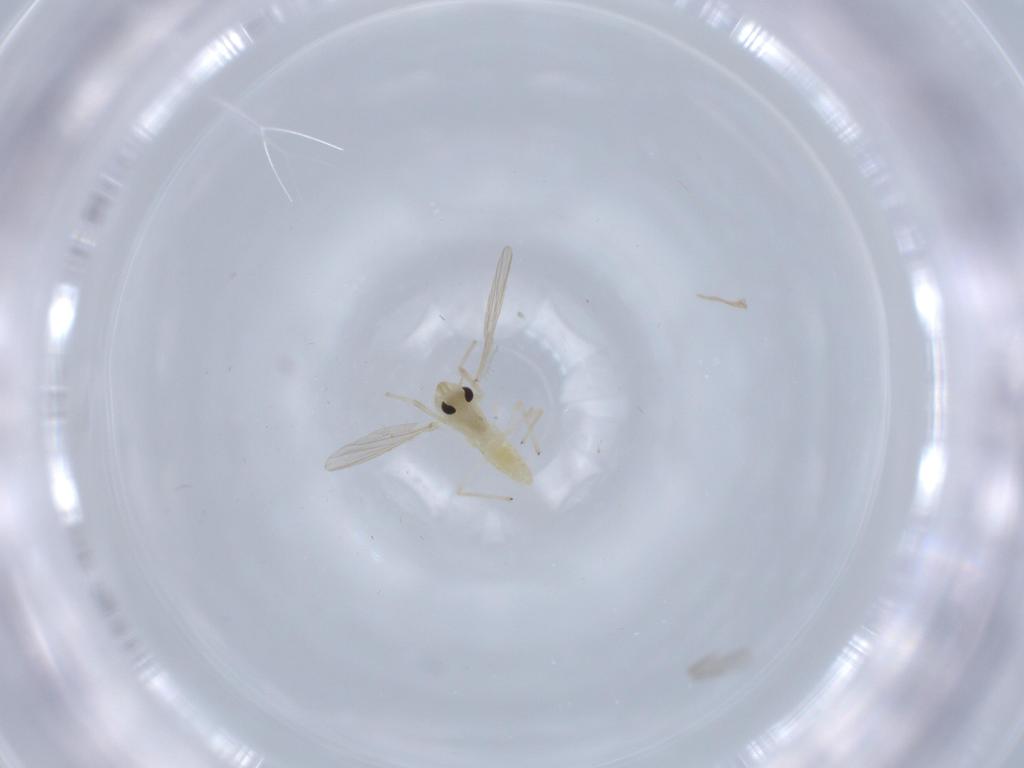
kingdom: Animalia
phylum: Arthropoda
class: Insecta
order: Diptera
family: Chironomidae
